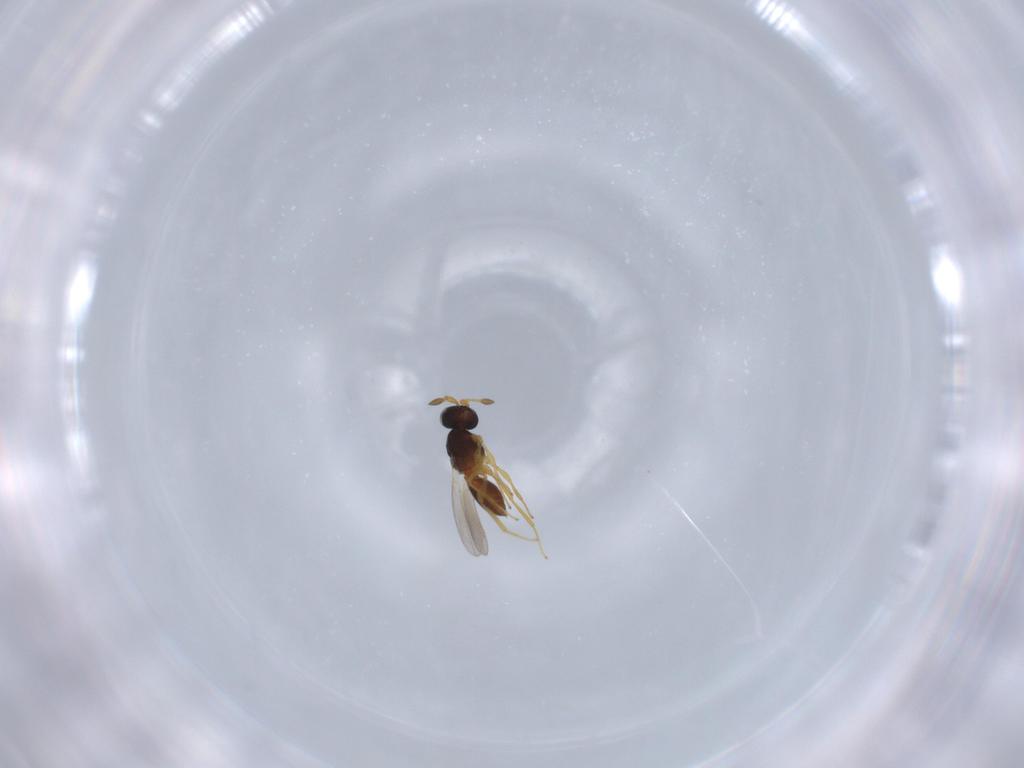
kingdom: Animalia
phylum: Arthropoda
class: Insecta
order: Hymenoptera
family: Platygastridae
